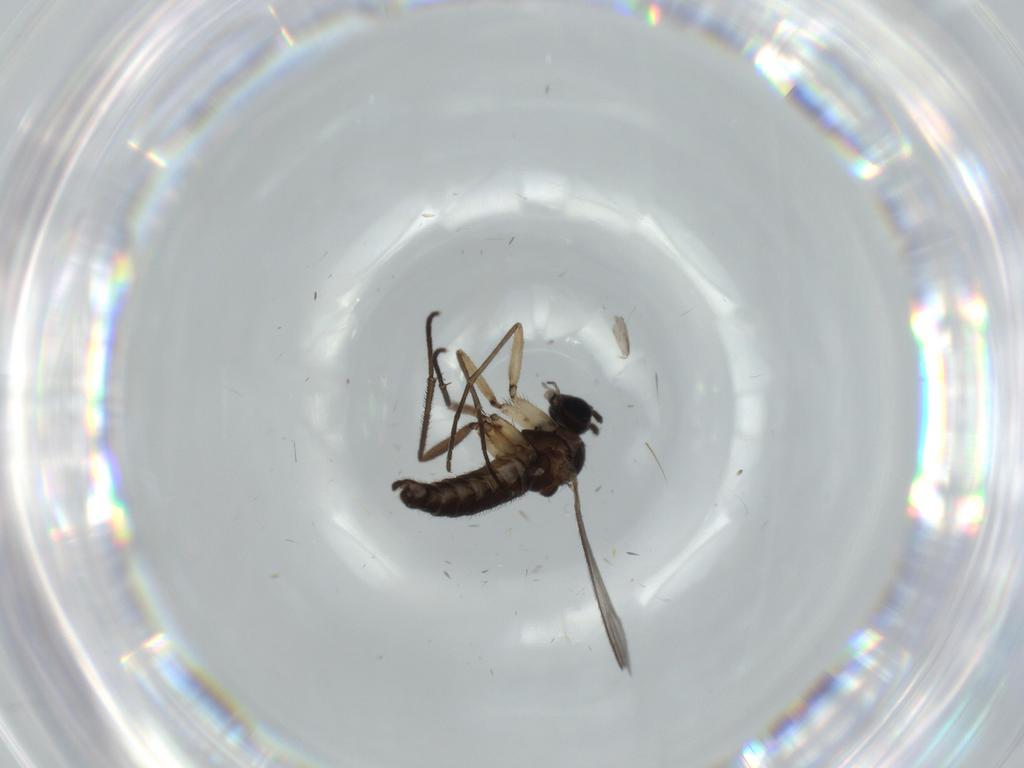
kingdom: Animalia
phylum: Arthropoda
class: Insecta
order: Diptera
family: Sciaridae
